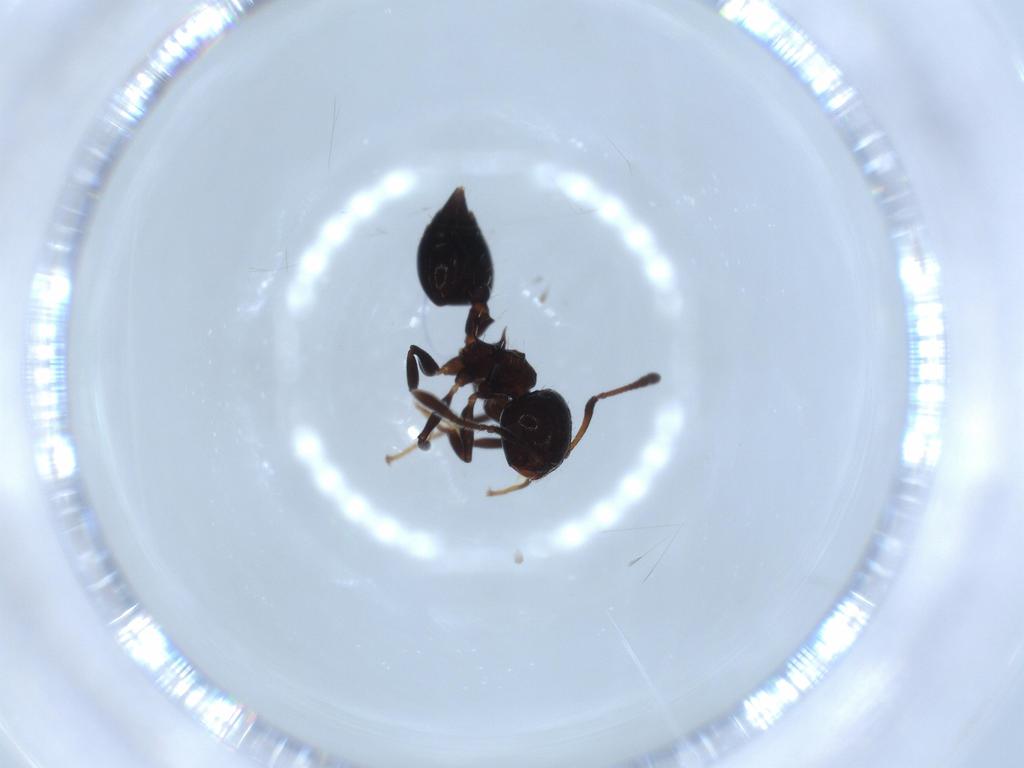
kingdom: Animalia
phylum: Arthropoda
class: Insecta
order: Hymenoptera
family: Formicidae
